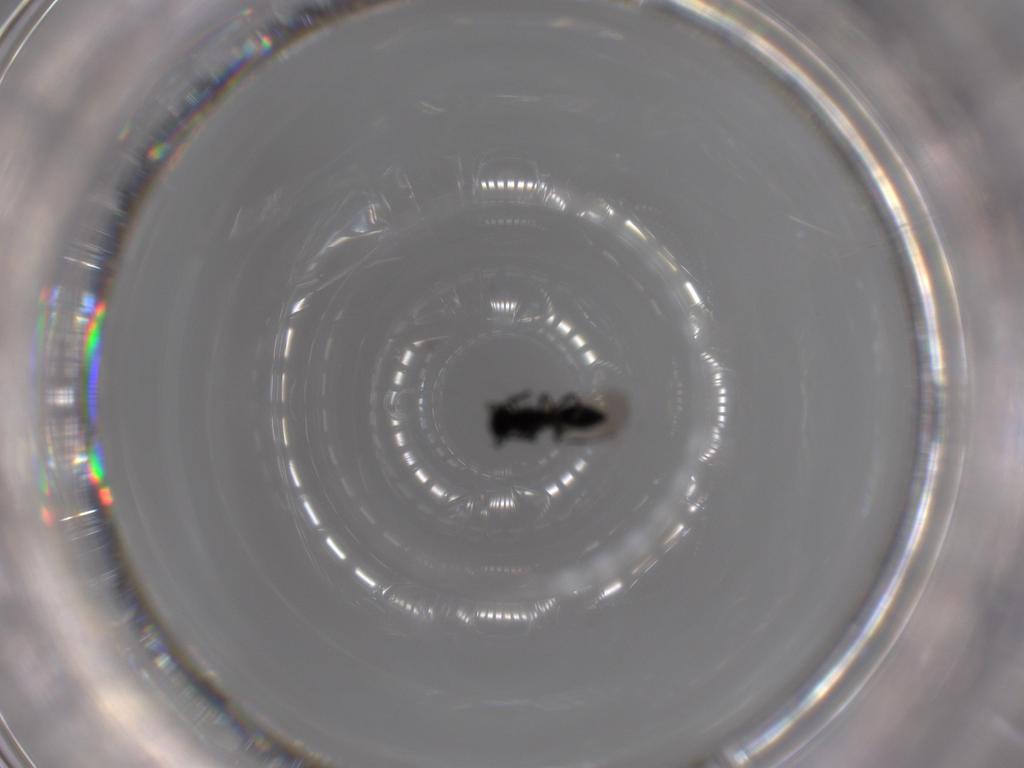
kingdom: Animalia
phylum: Arthropoda
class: Insecta
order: Hymenoptera
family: Platygastridae
